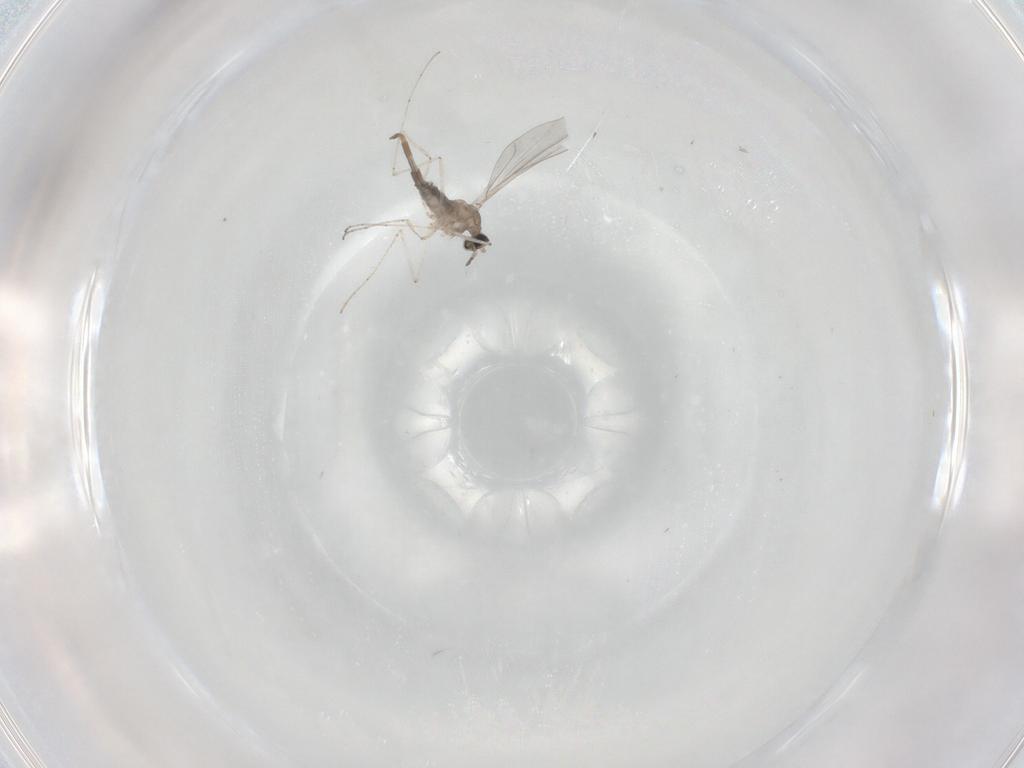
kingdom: Animalia
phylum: Arthropoda
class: Insecta
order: Diptera
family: Cecidomyiidae
